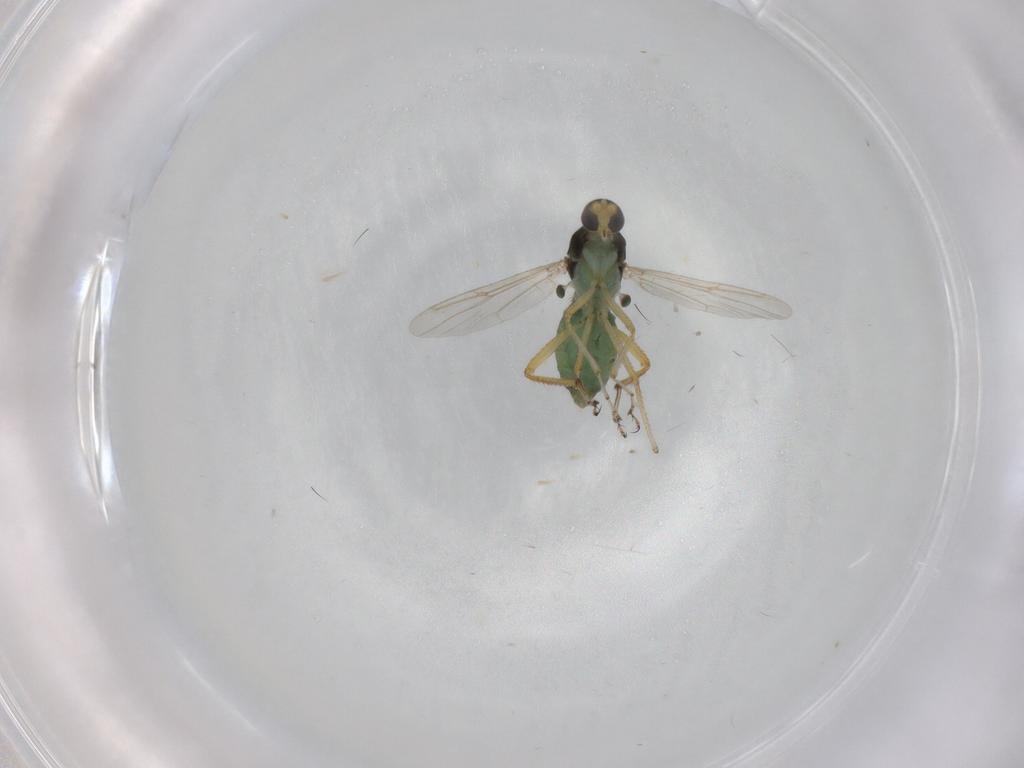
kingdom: Animalia
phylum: Arthropoda
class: Insecta
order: Diptera
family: Ceratopogonidae
